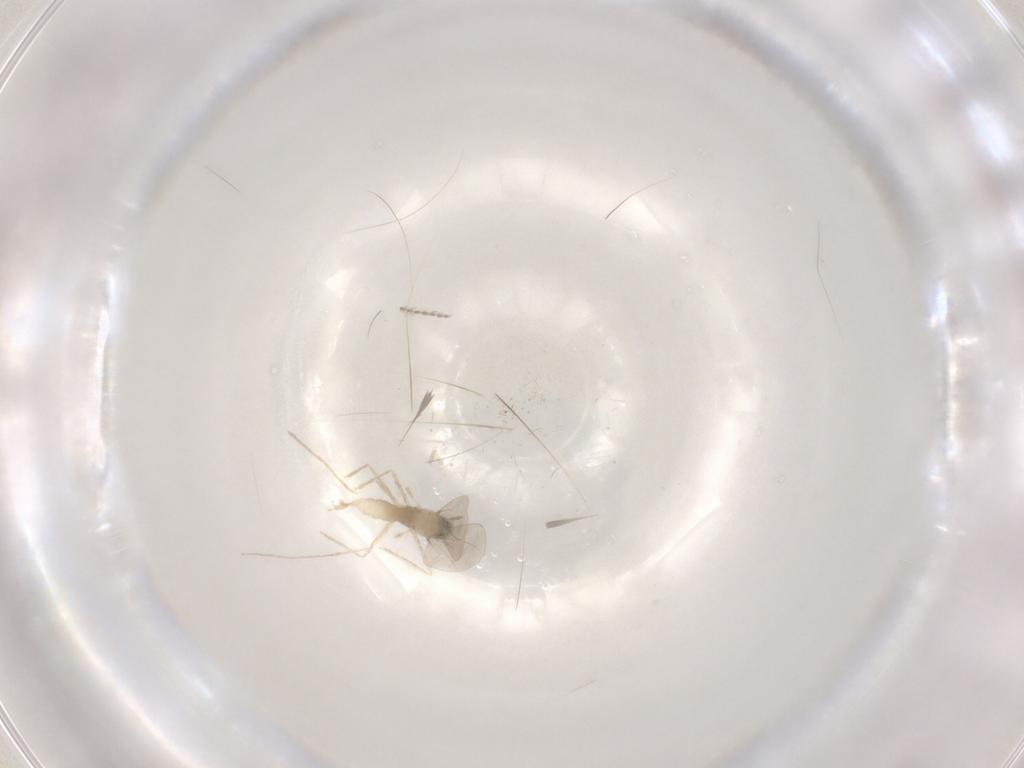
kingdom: Animalia
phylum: Arthropoda
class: Insecta
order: Diptera
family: Cecidomyiidae
